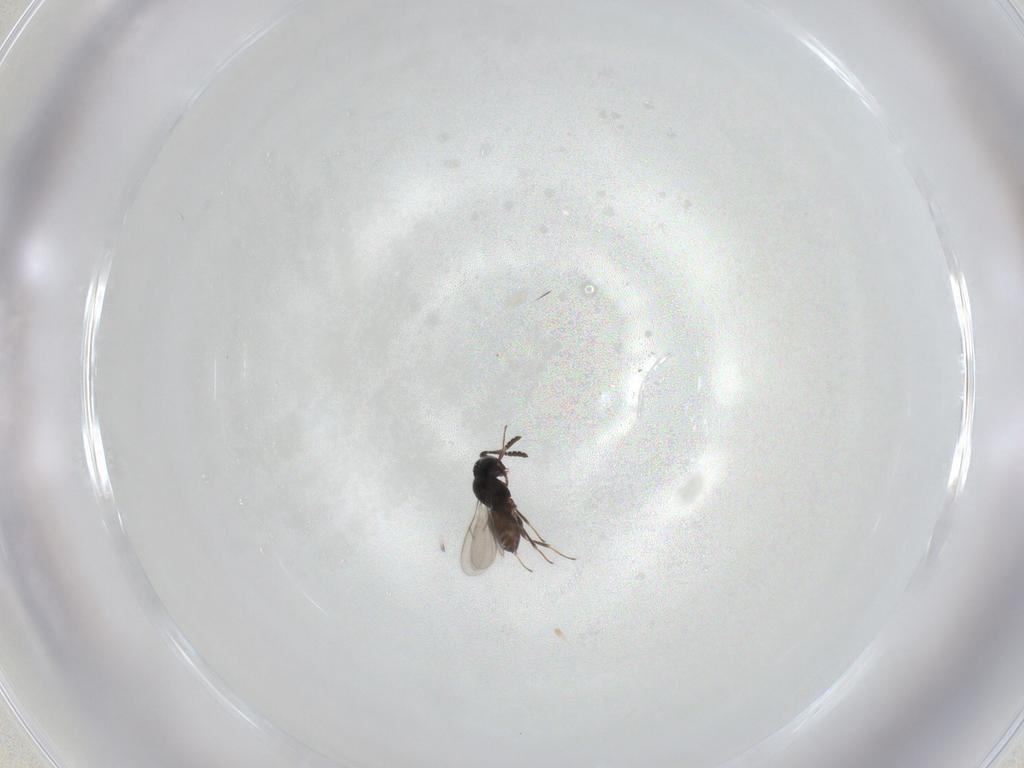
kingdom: Animalia
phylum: Arthropoda
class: Insecta
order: Hymenoptera
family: Scelionidae
